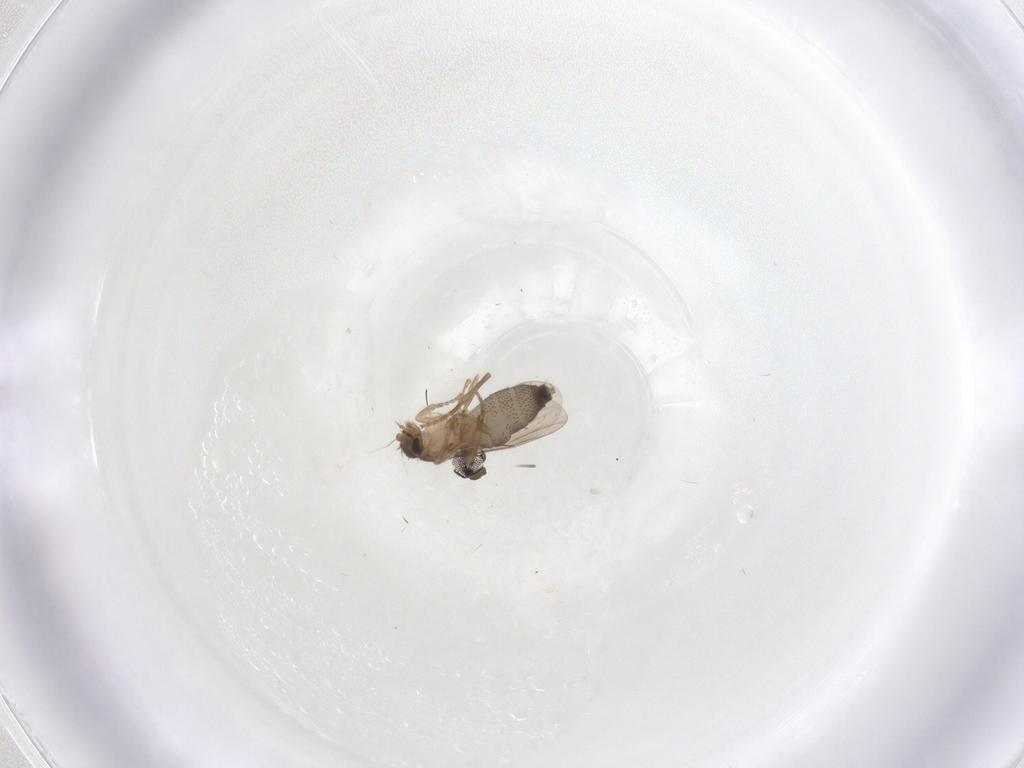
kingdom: Animalia
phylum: Arthropoda
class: Insecta
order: Diptera
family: Phoridae
